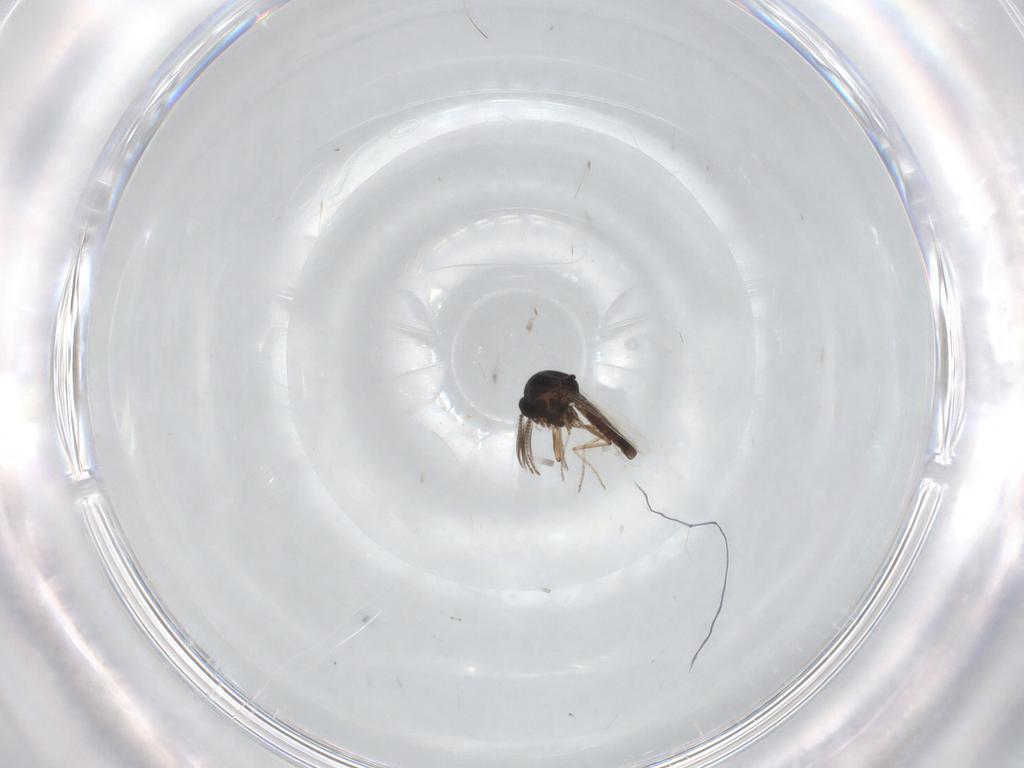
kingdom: Animalia
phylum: Arthropoda
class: Insecta
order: Diptera
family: Ceratopogonidae
